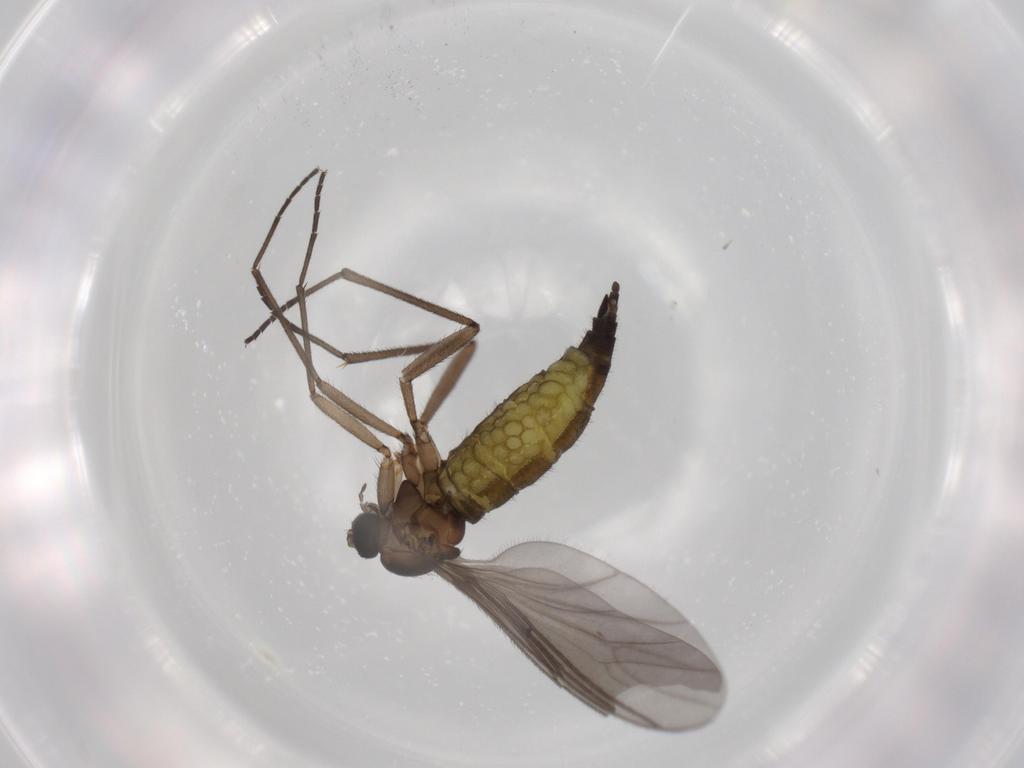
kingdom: Animalia
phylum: Arthropoda
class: Insecta
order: Diptera
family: Sciaridae
